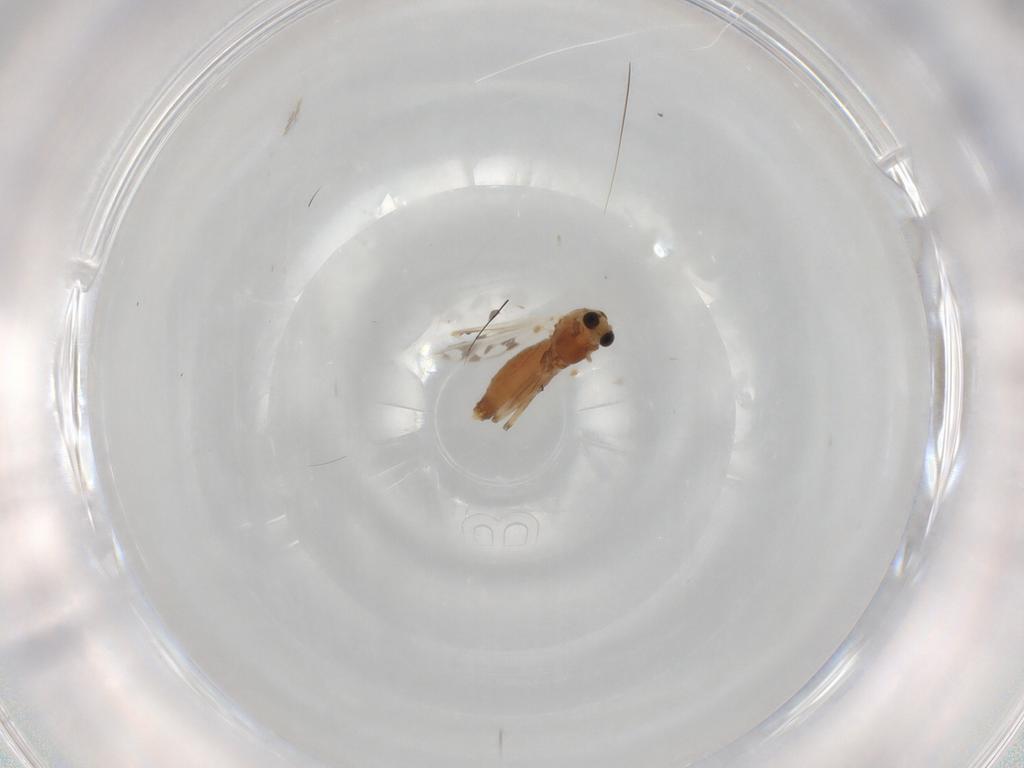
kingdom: Animalia
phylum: Arthropoda
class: Insecta
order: Diptera
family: Chironomidae
